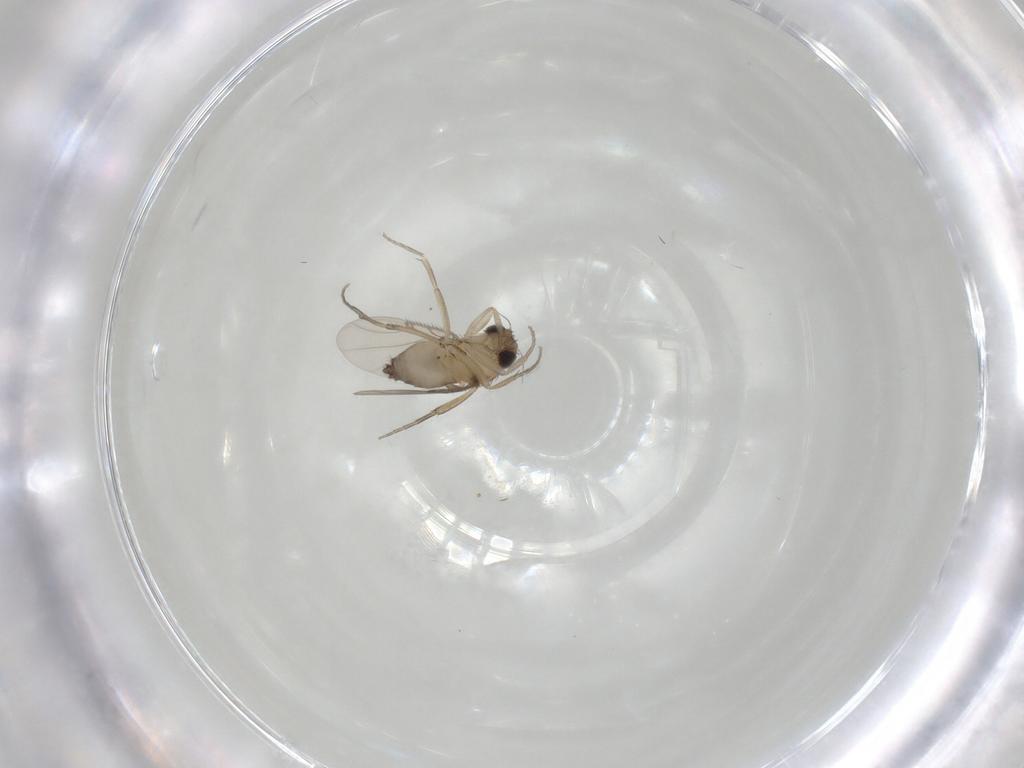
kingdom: Animalia
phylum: Arthropoda
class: Insecta
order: Diptera
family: Phoridae
